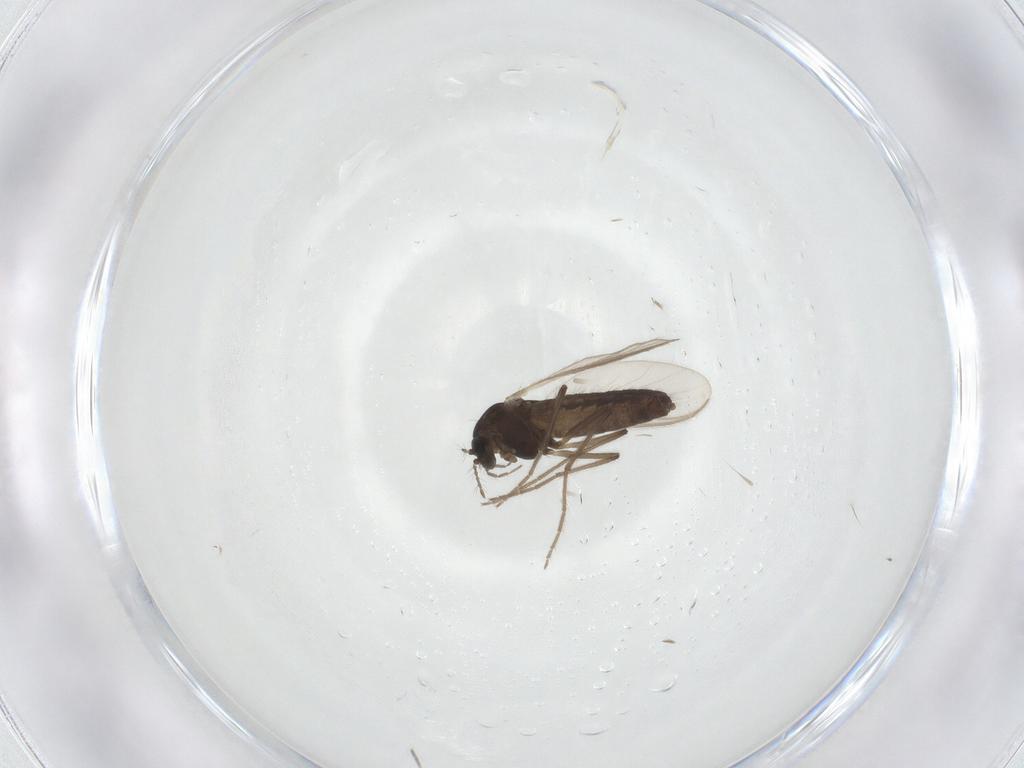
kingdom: Animalia
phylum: Arthropoda
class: Insecta
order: Diptera
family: Chironomidae
